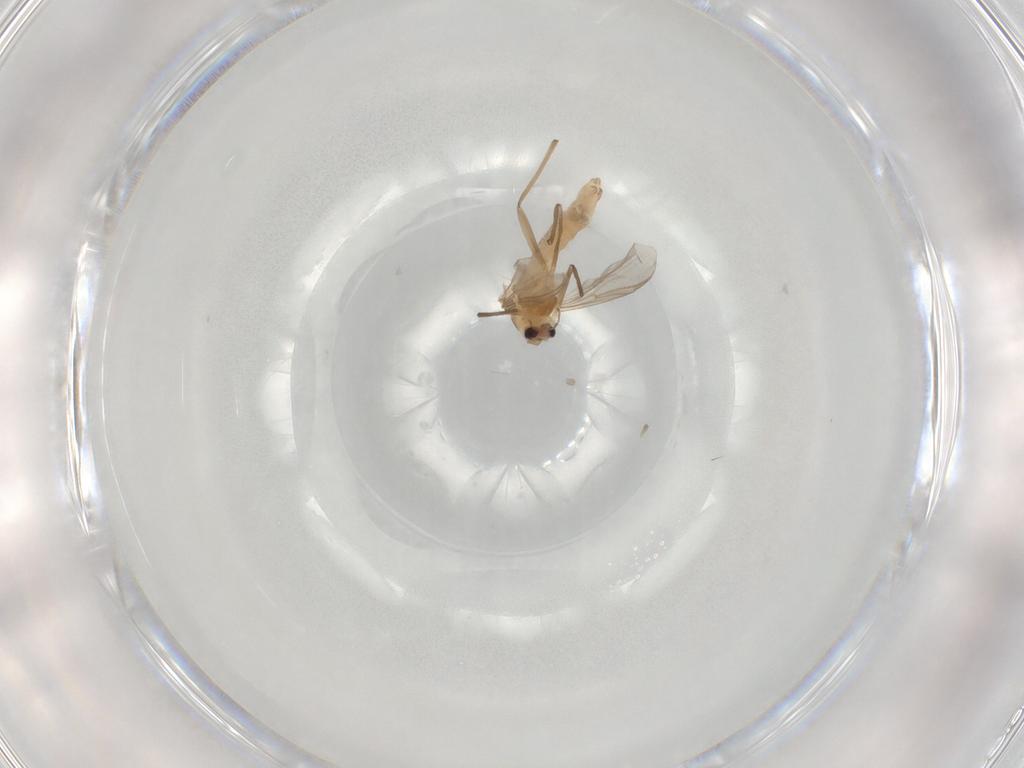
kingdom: Animalia
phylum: Arthropoda
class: Insecta
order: Diptera
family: Chironomidae
